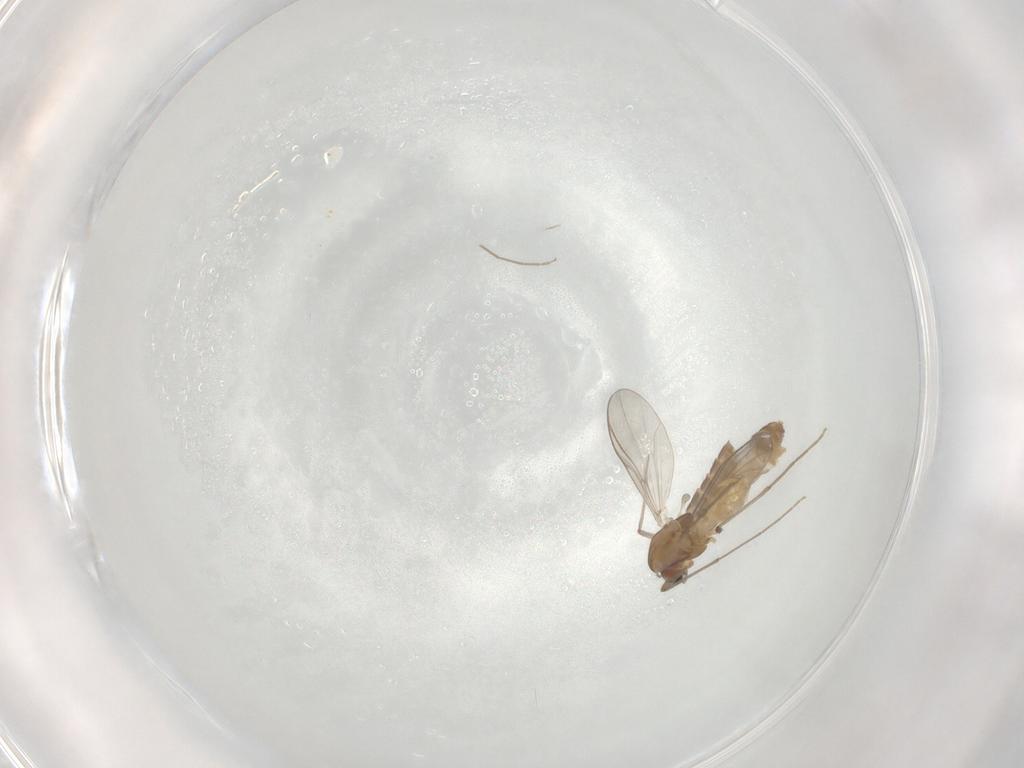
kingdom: Animalia
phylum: Arthropoda
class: Insecta
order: Diptera
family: Chironomidae
